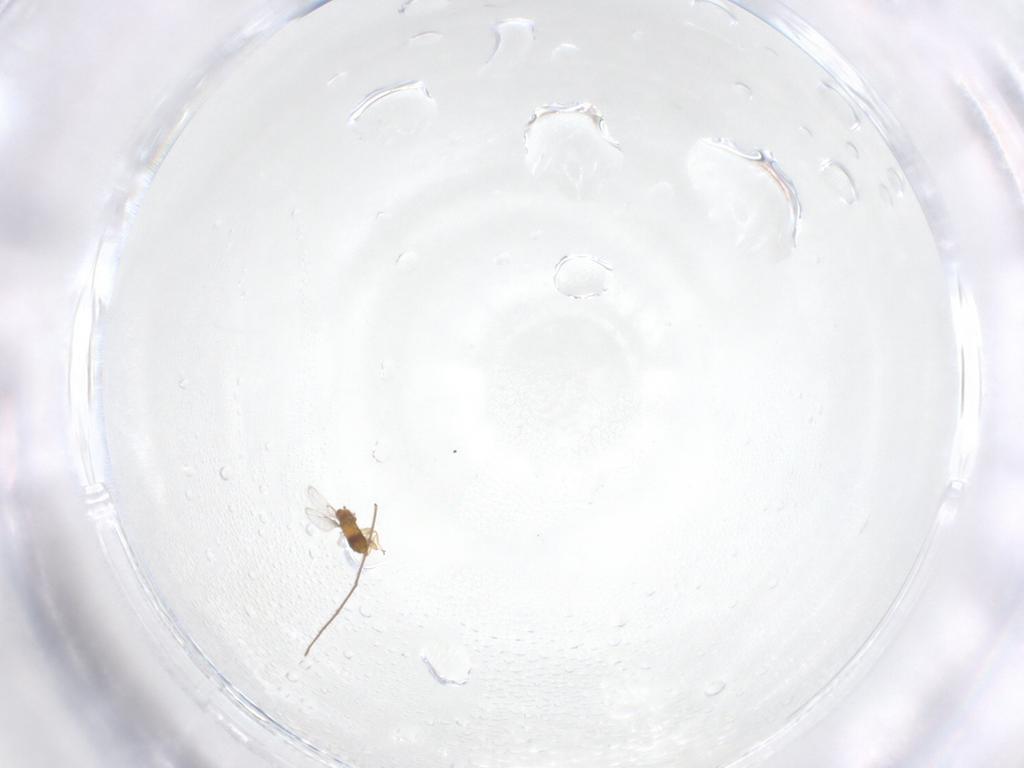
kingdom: Animalia
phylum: Arthropoda
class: Insecta
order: Hymenoptera
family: Trichogrammatidae
